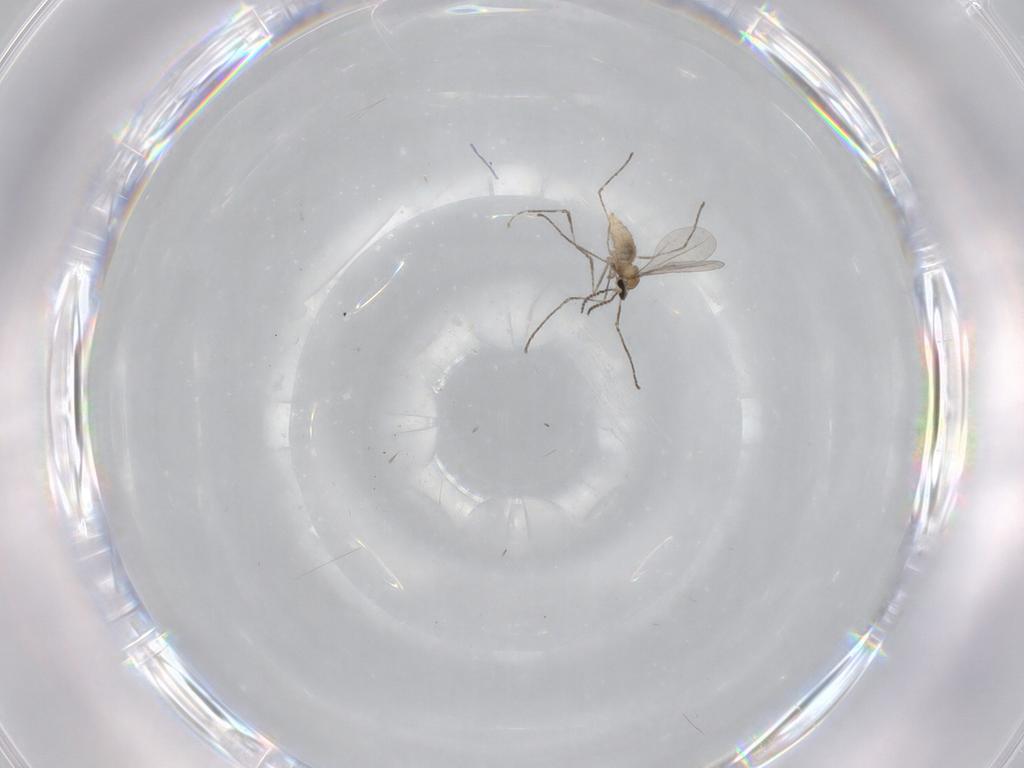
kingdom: Animalia
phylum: Arthropoda
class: Insecta
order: Diptera
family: Cecidomyiidae
